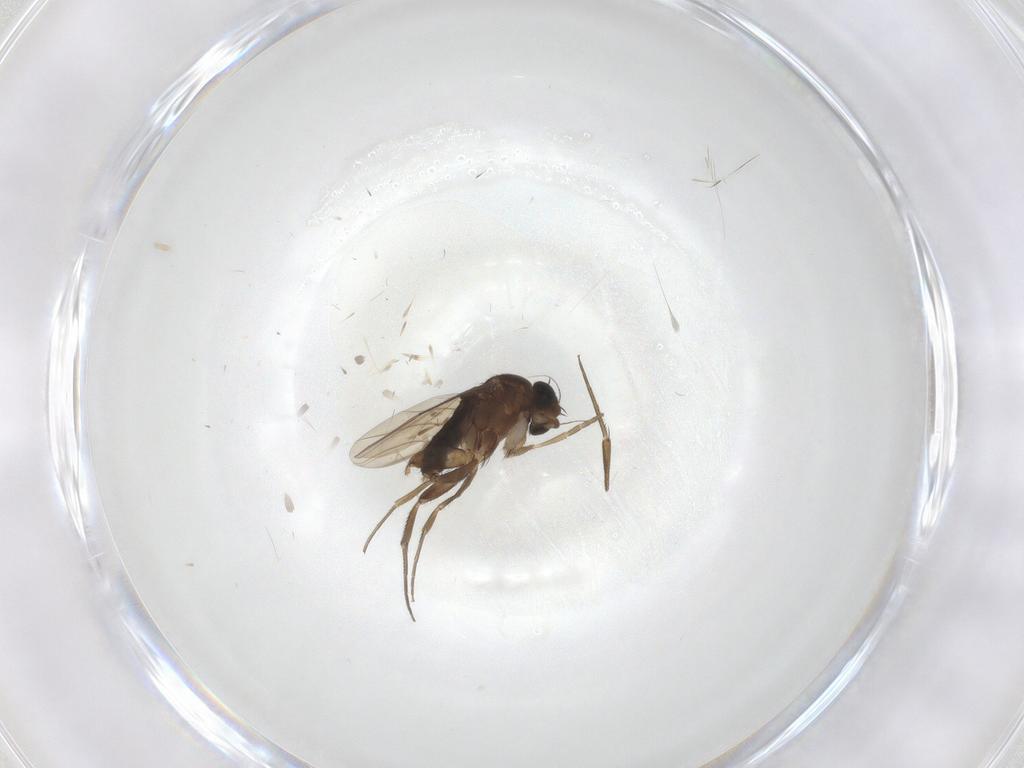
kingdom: Animalia
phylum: Arthropoda
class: Insecta
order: Diptera
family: Phoridae
